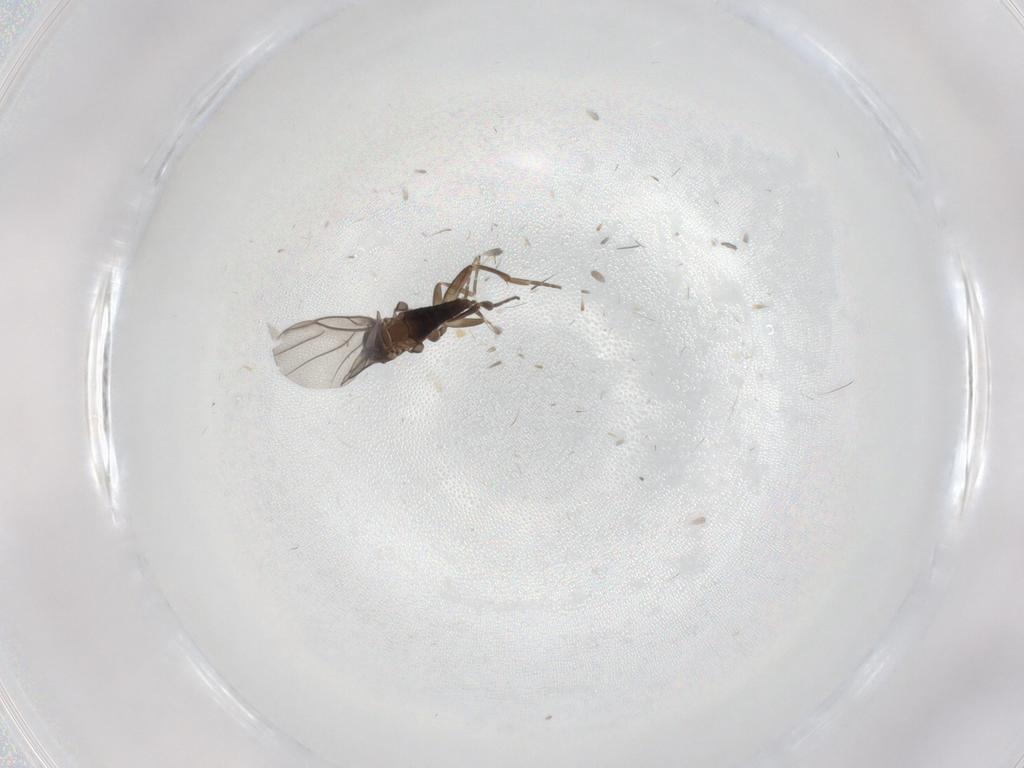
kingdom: Animalia
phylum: Arthropoda
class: Insecta
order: Diptera
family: Phoridae
